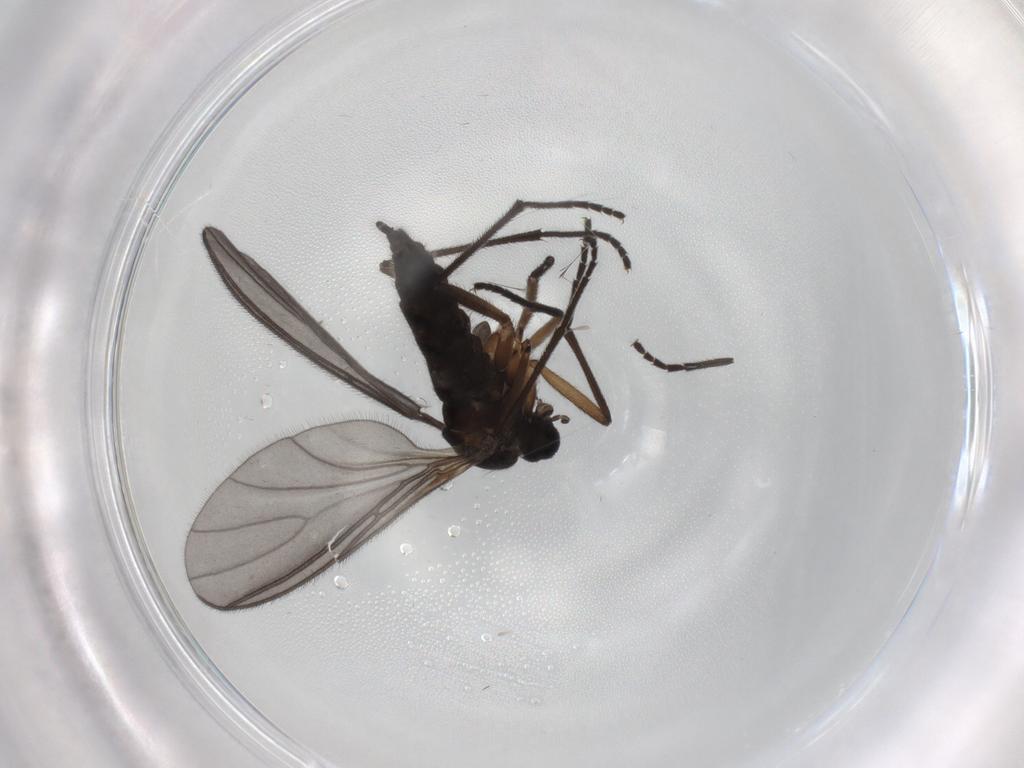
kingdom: Animalia
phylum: Arthropoda
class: Insecta
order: Diptera
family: Sciaridae
